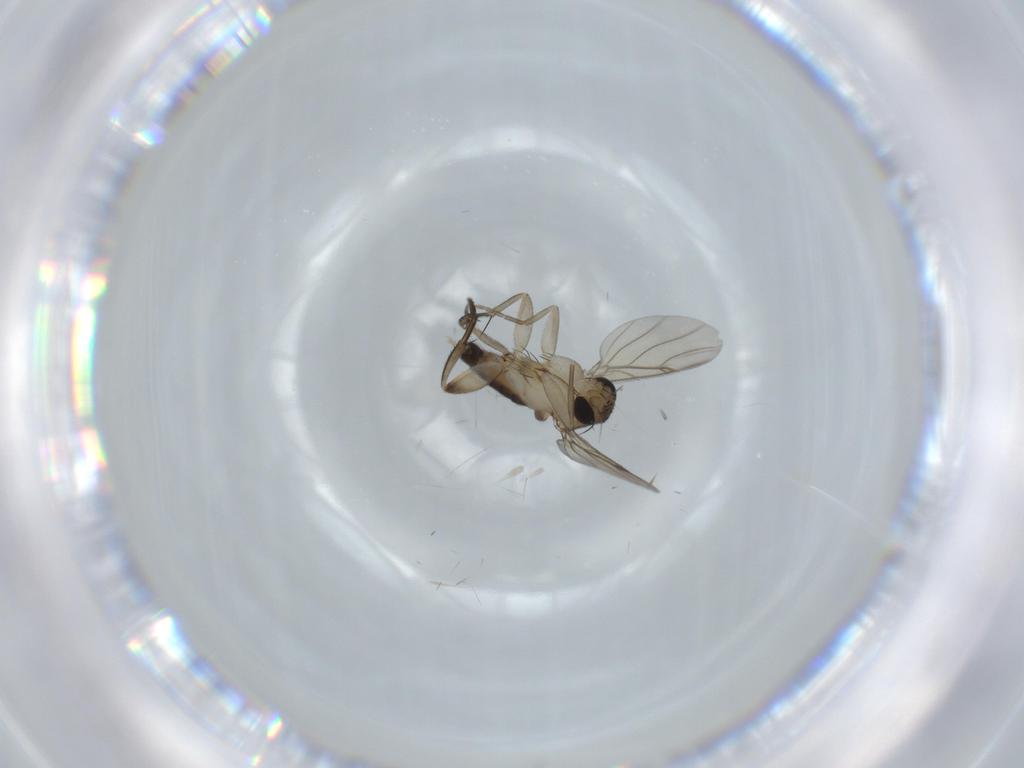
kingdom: Animalia
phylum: Arthropoda
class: Insecta
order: Diptera
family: Phoridae
